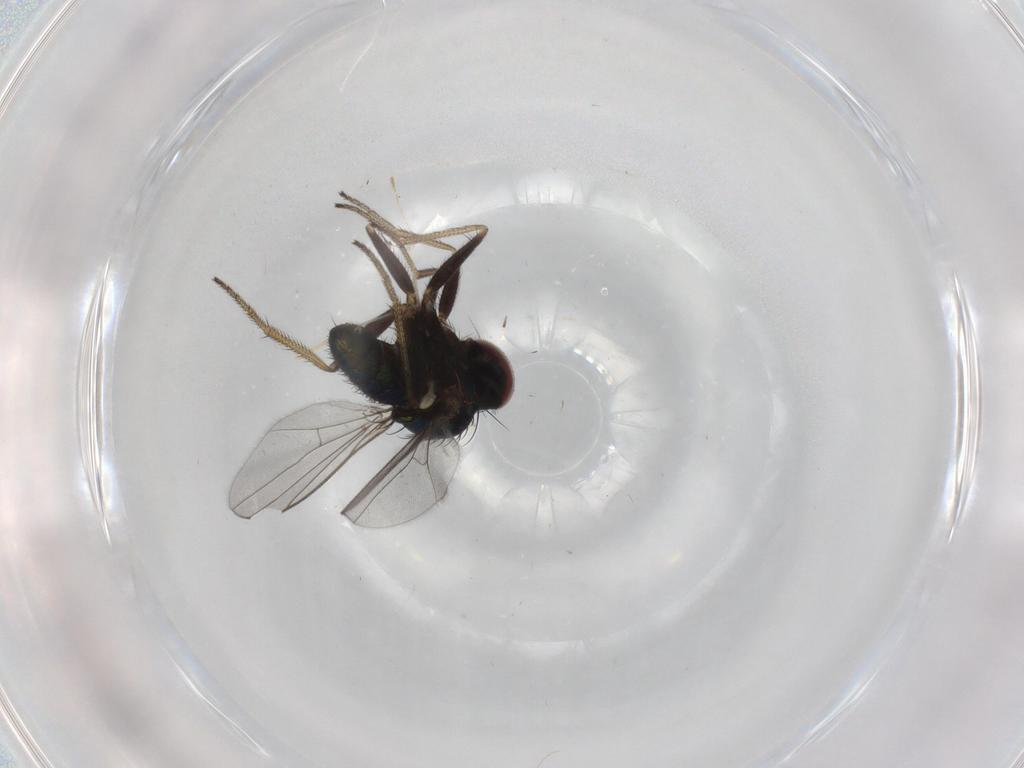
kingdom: Animalia
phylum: Arthropoda
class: Insecta
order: Diptera
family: Dolichopodidae
